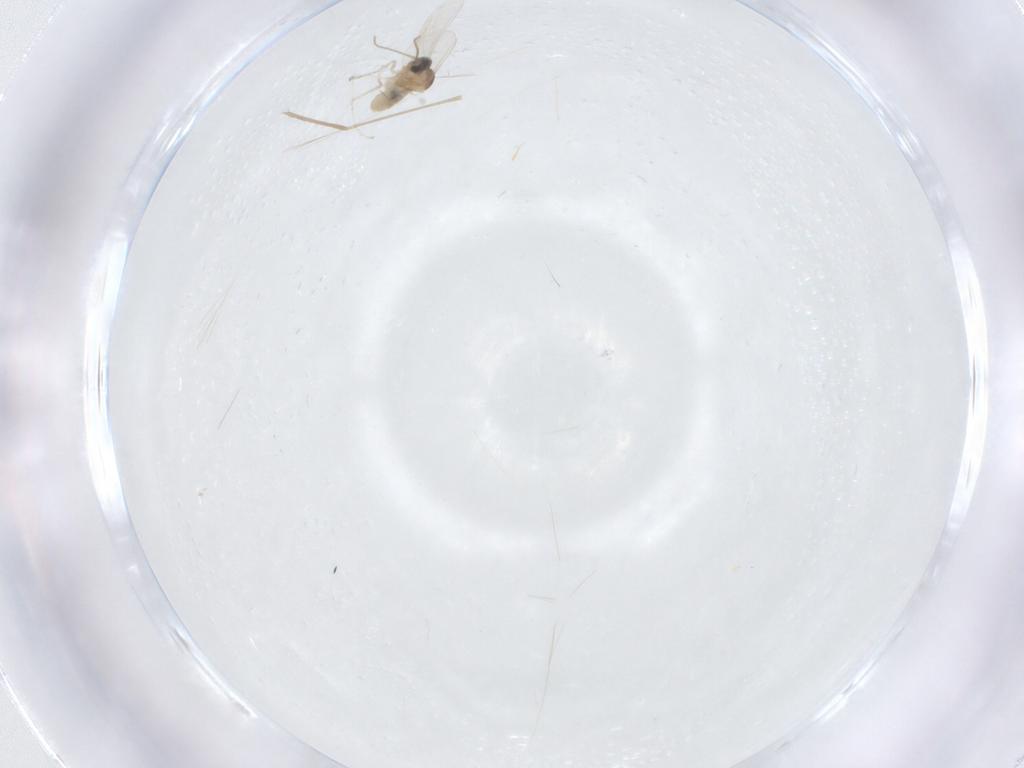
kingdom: Animalia
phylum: Arthropoda
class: Insecta
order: Diptera
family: Cecidomyiidae
